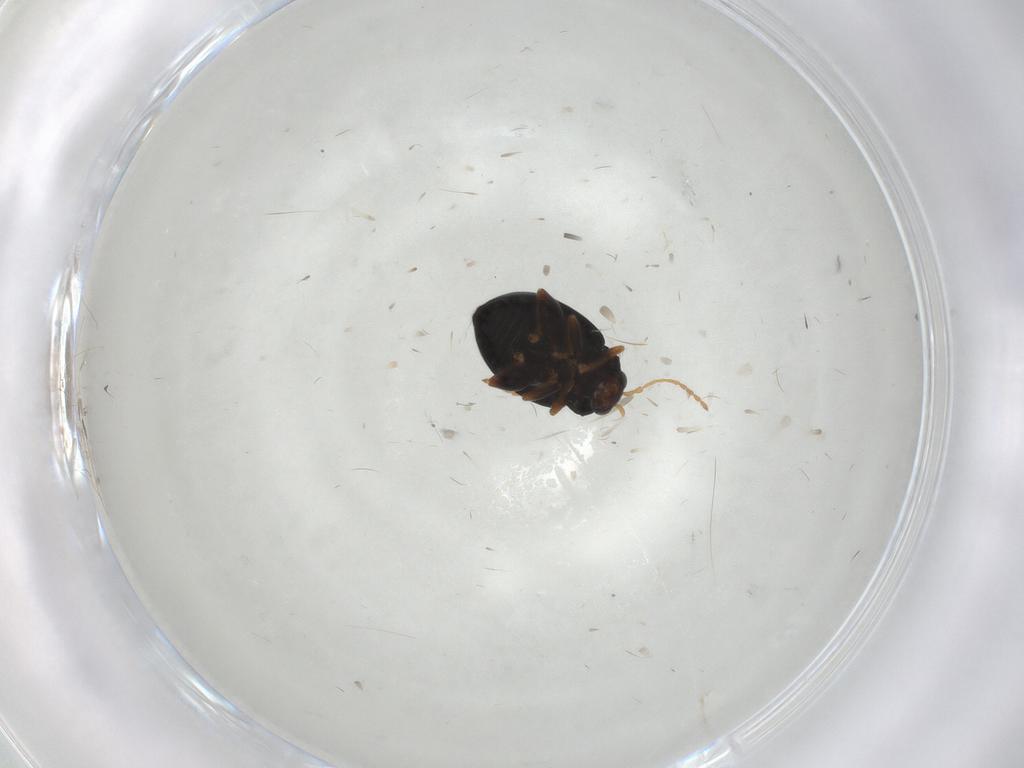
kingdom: Animalia
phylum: Arthropoda
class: Insecta
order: Coleoptera
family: Chrysomelidae
